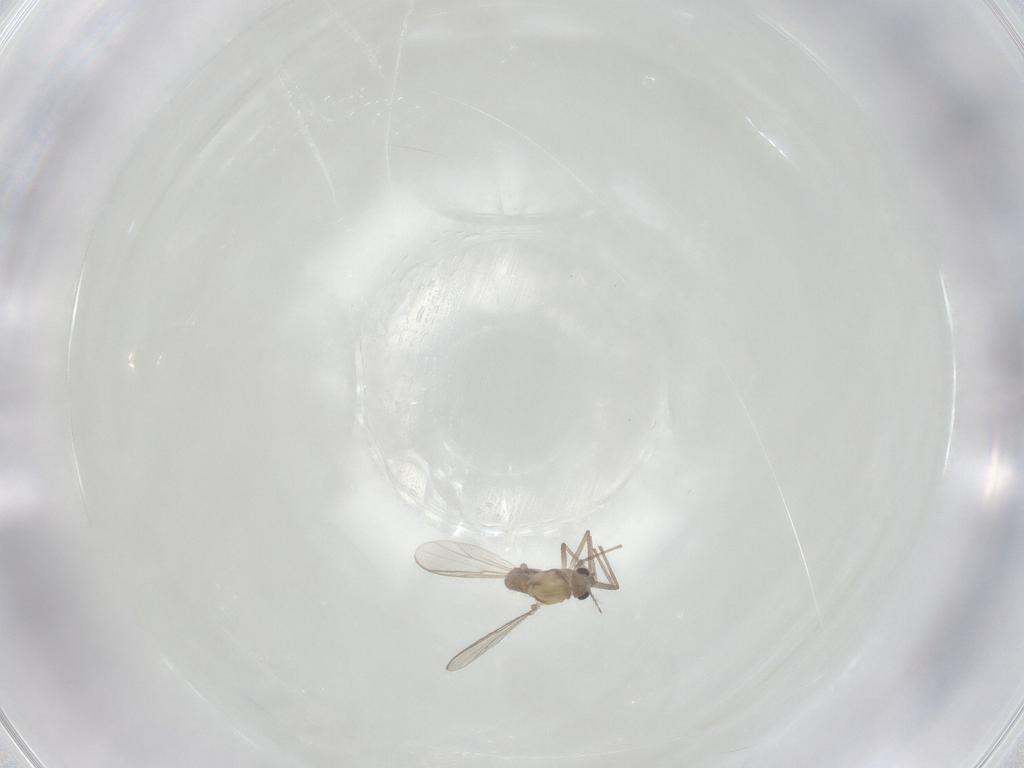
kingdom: Animalia
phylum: Arthropoda
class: Insecta
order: Diptera
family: Chironomidae
